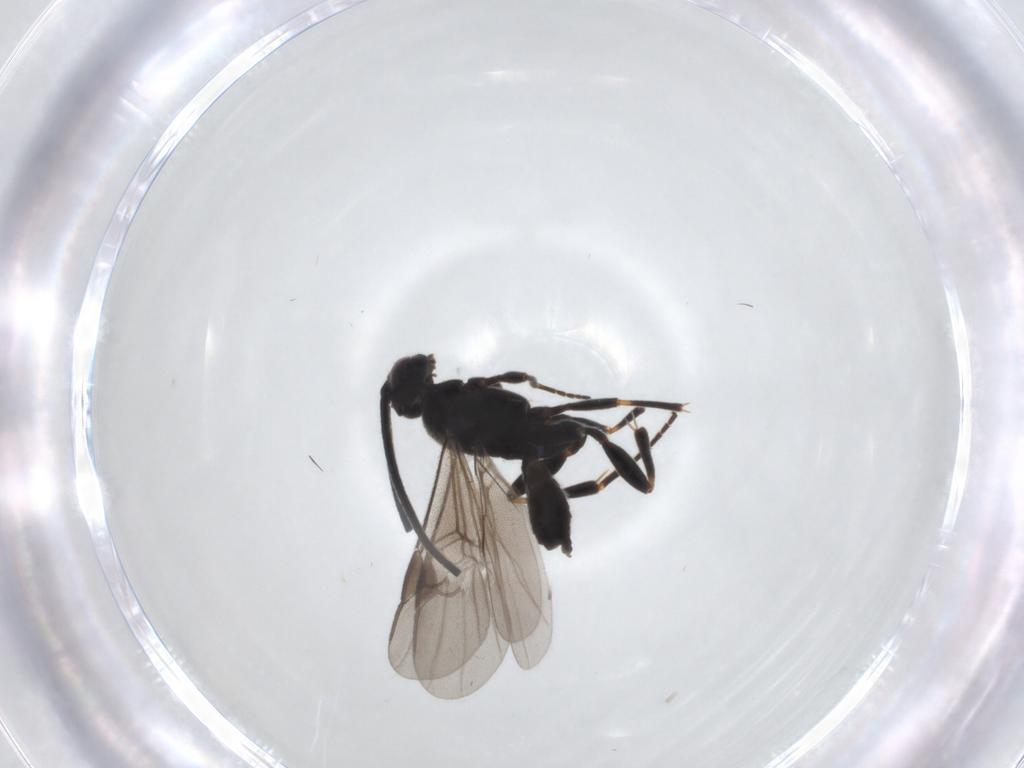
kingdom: Animalia
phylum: Arthropoda
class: Insecta
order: Hymenoptera
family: Braconidae
